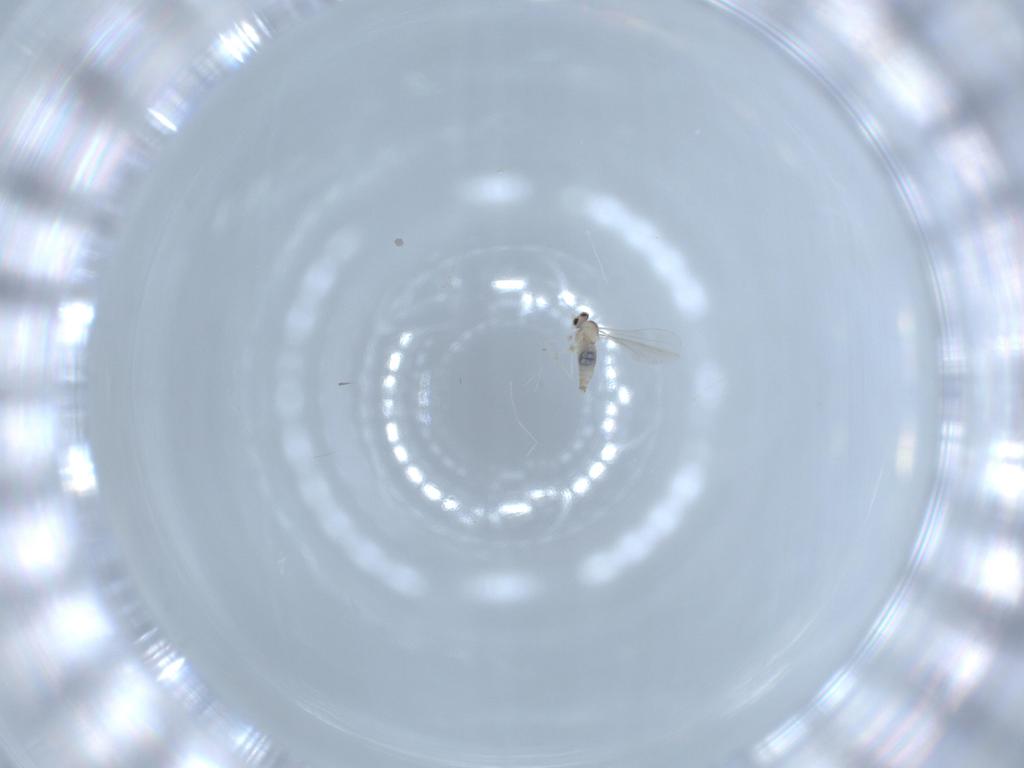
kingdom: Animalia
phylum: Arthropoda
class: Insecta
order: Diptera
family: Cecidomyiidae
